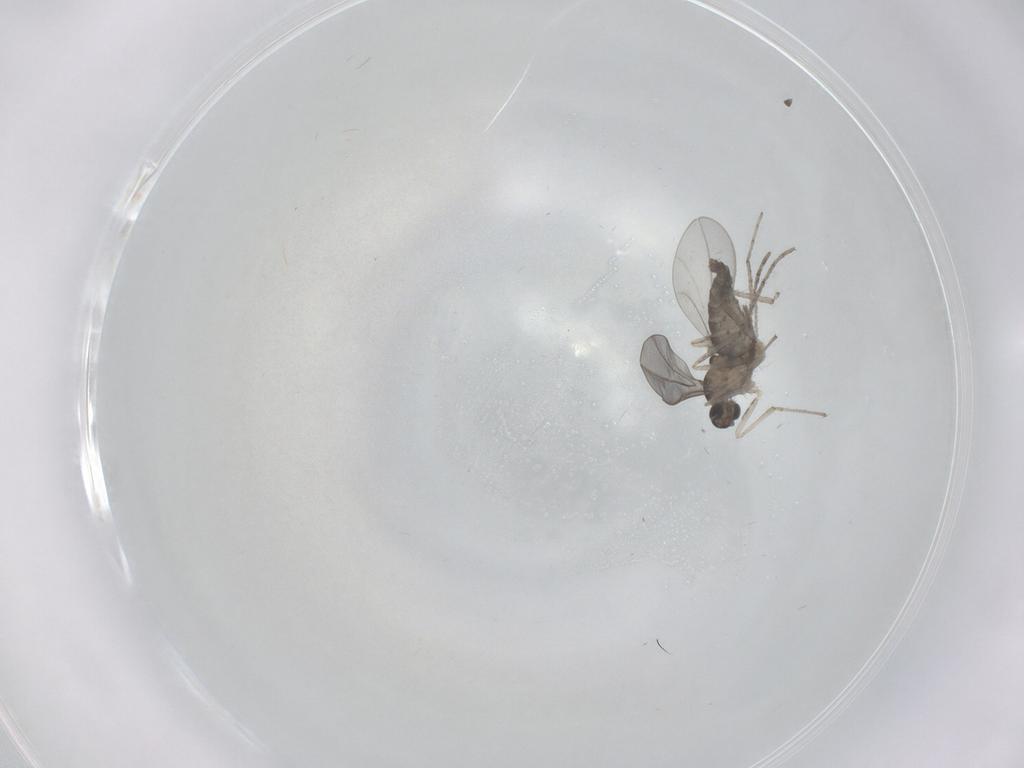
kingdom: Animalia
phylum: Arthropoda
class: Insecta
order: Diptera
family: Cecidomyiidae
